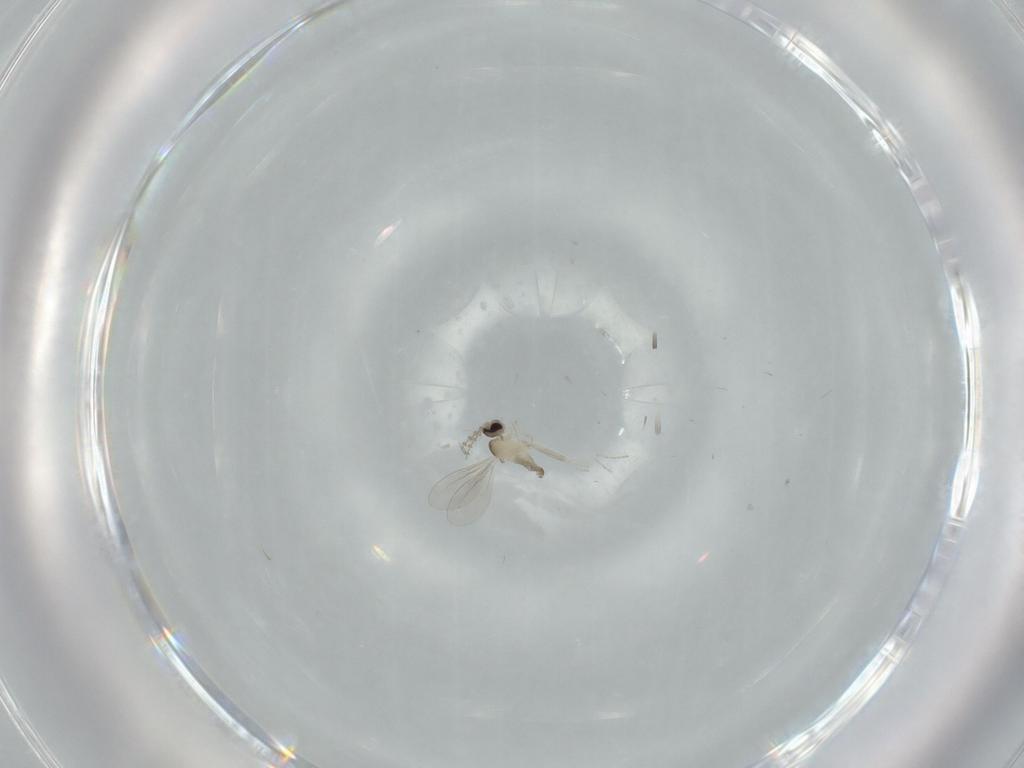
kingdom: Animalia
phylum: Arthropoda
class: Insecta
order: Diptera
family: Cecidomyiidae
